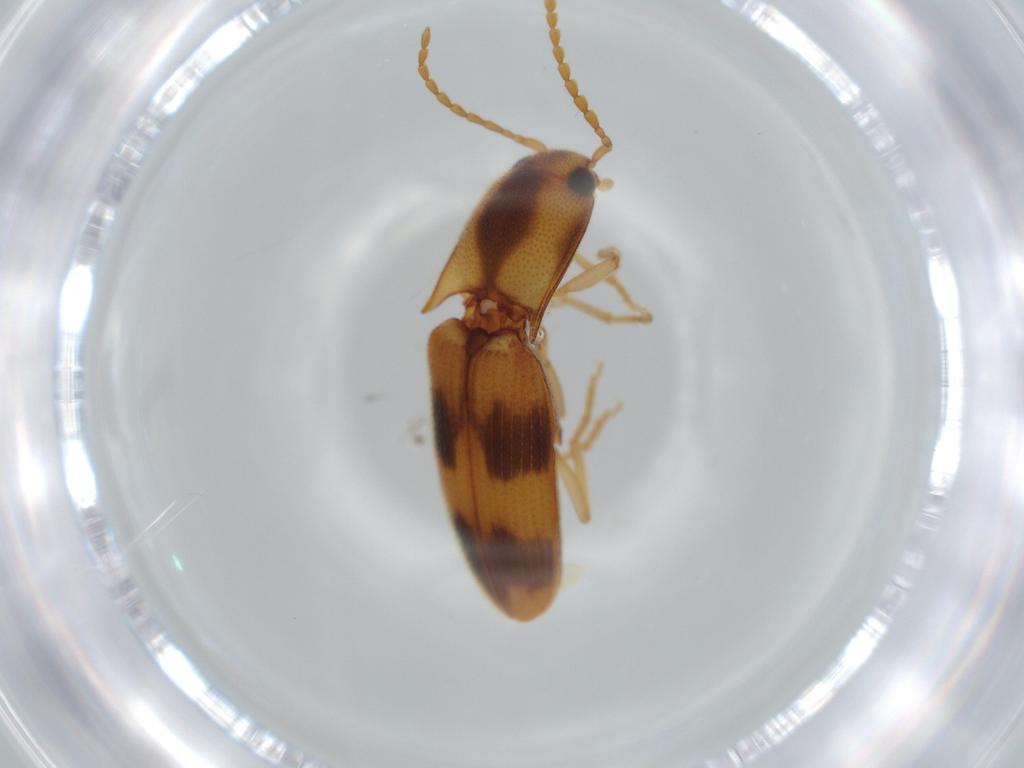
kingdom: Animalia
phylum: Arthropoda
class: Insecta
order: Coleoptera
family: Elateridae
